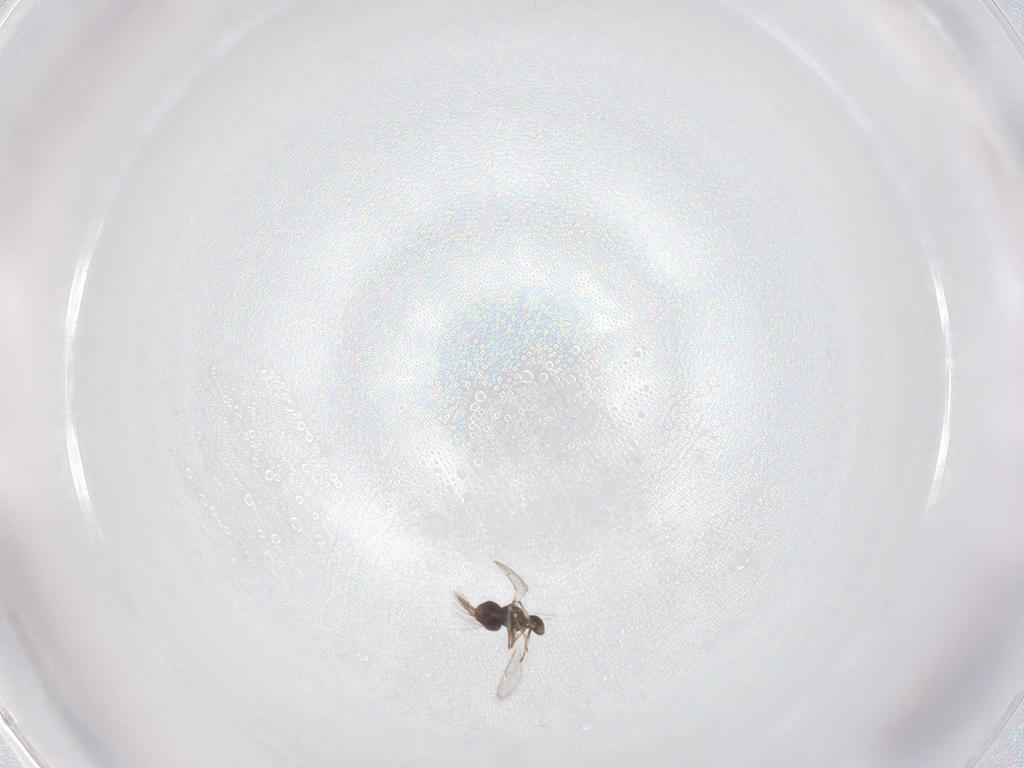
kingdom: Animalia
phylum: Arthropoda
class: Insecta
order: Hymenoptera
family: Eulophidae
